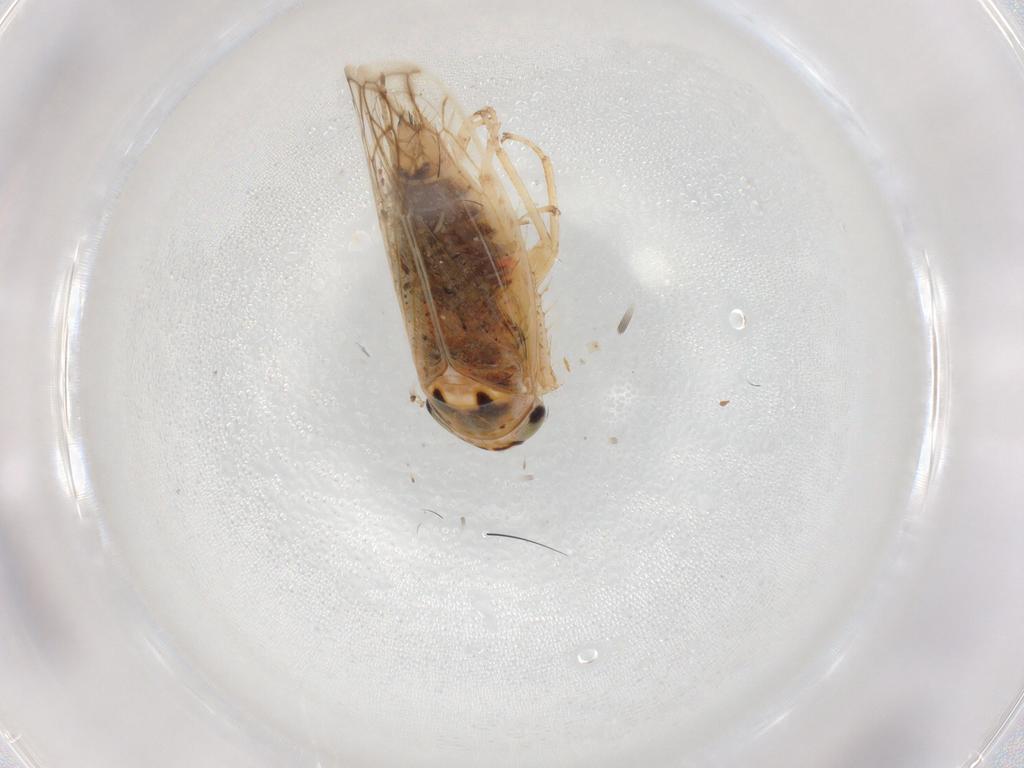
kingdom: Animalia
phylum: Arthropoda
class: Insecta
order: Hemiptera
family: Cicadellidae
